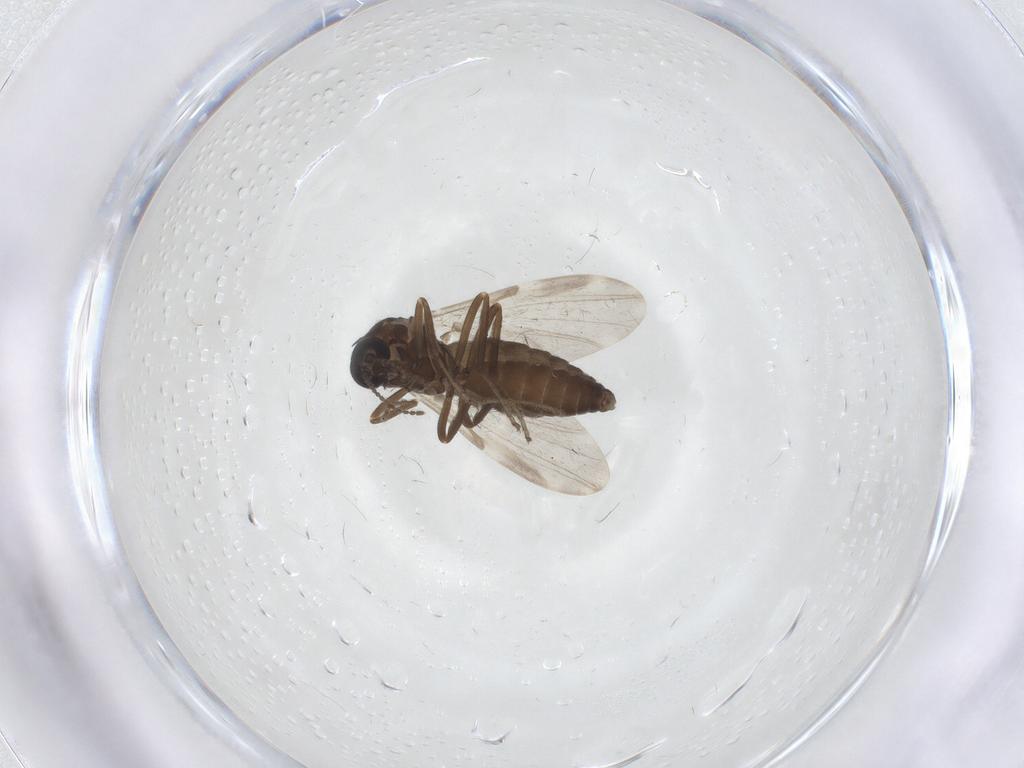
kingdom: Animalia
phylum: Arthropoda
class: Insecta
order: Diptera
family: Ceratopogonidae
